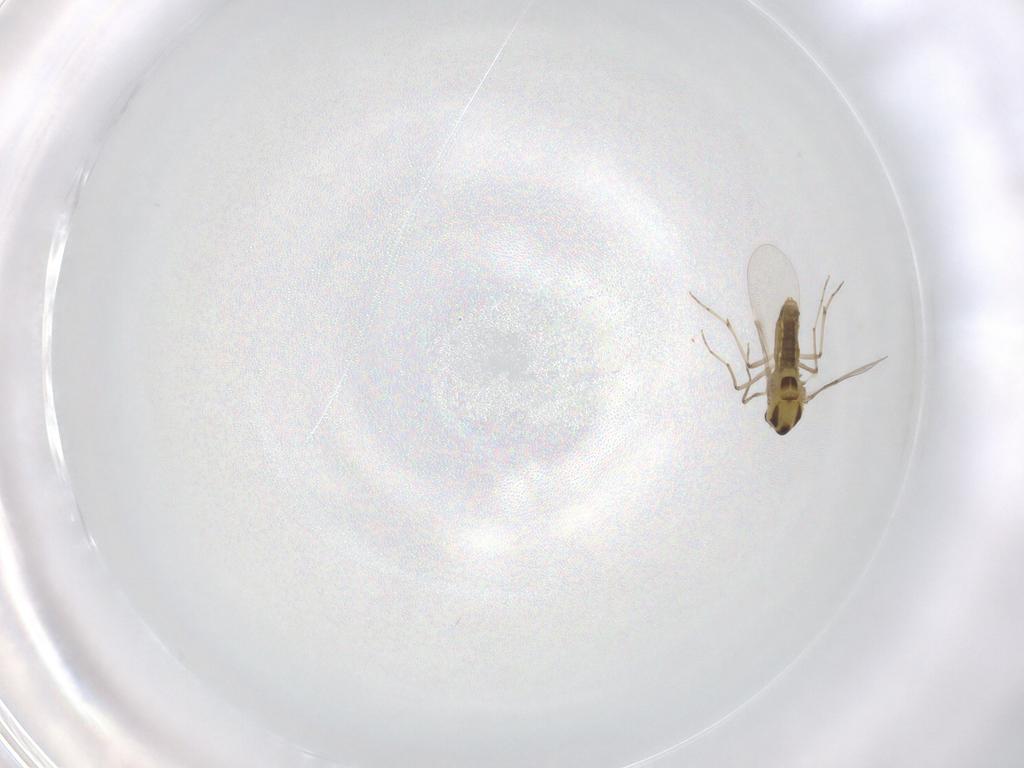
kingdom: Animalia
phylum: Arthropoda
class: Insecta
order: Diptera
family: Chironomidae
